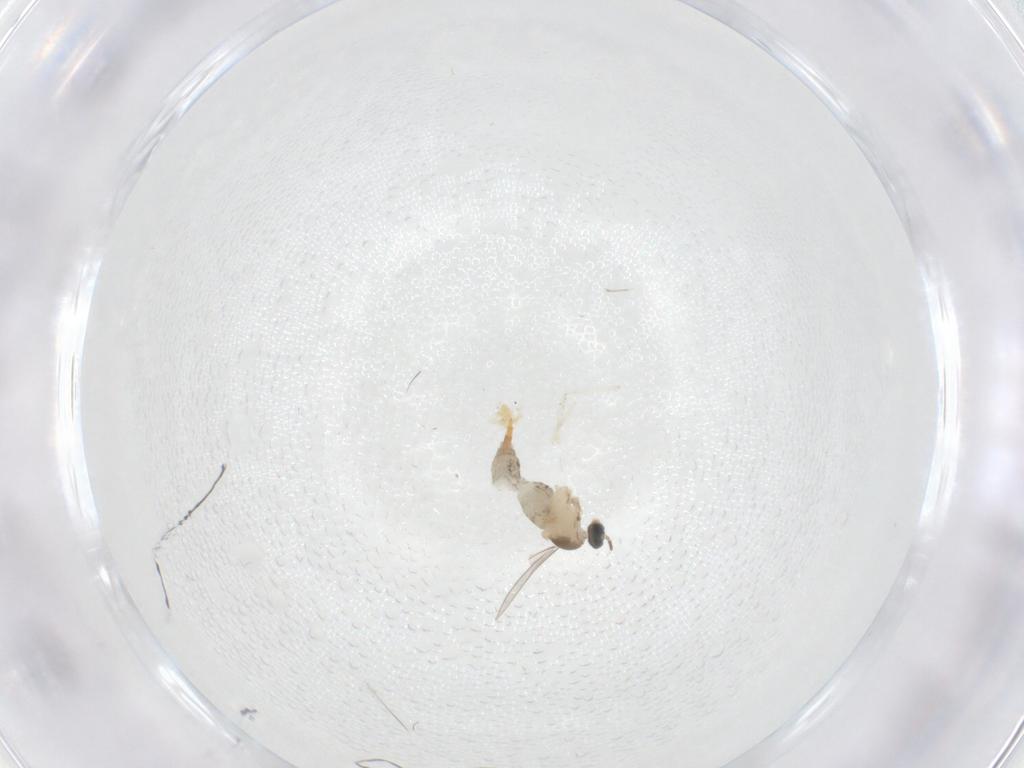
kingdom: Animalia
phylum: Arthropoda
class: Insecta
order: Diptera
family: Cecidomyiidae
